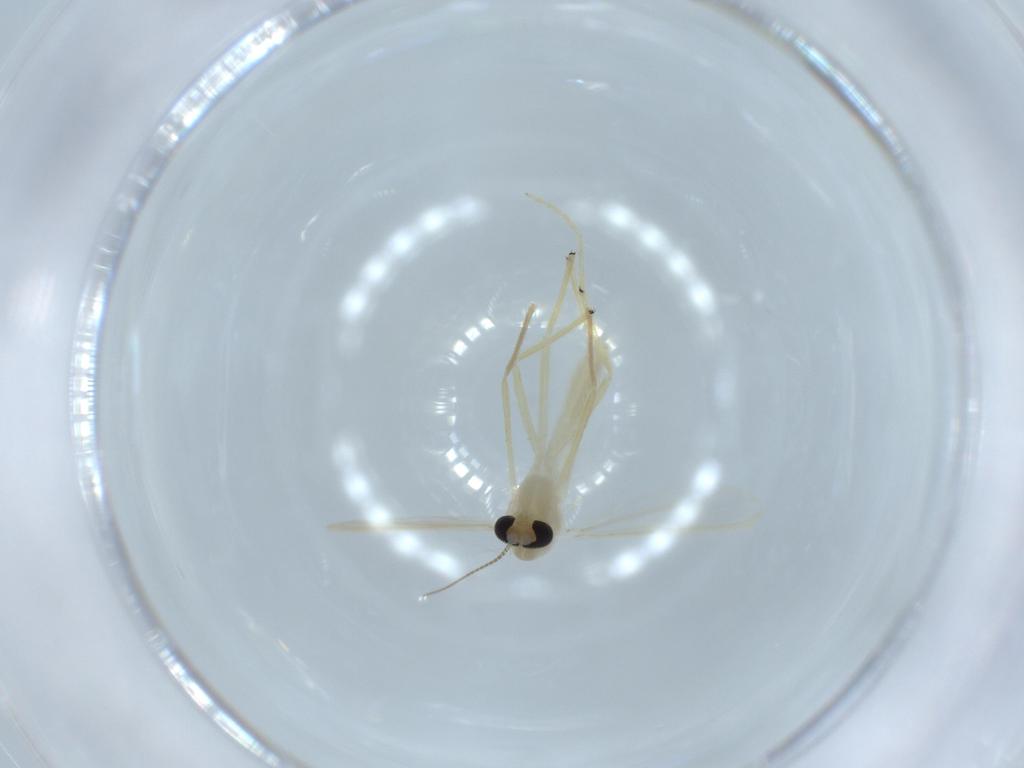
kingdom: Animalia
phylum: Arthropoda
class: Insecta
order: Diptera
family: Chironomidae
